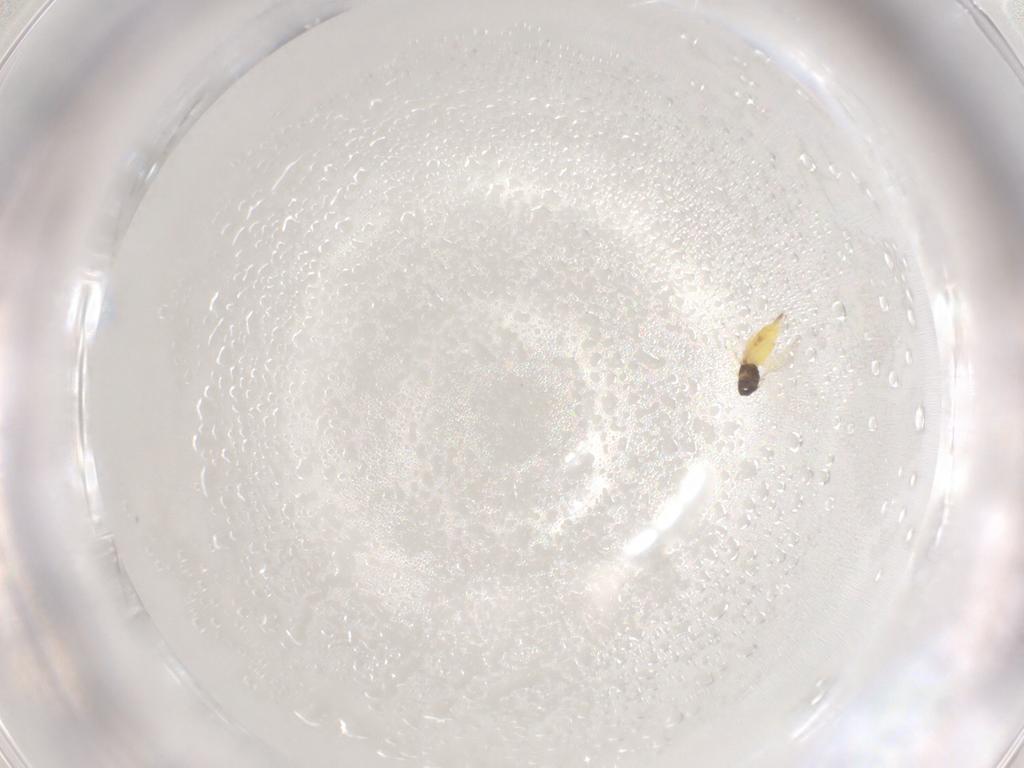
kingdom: Animalia
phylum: Arthropoda
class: Insecta
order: Hymenoptera
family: Eulophidae
